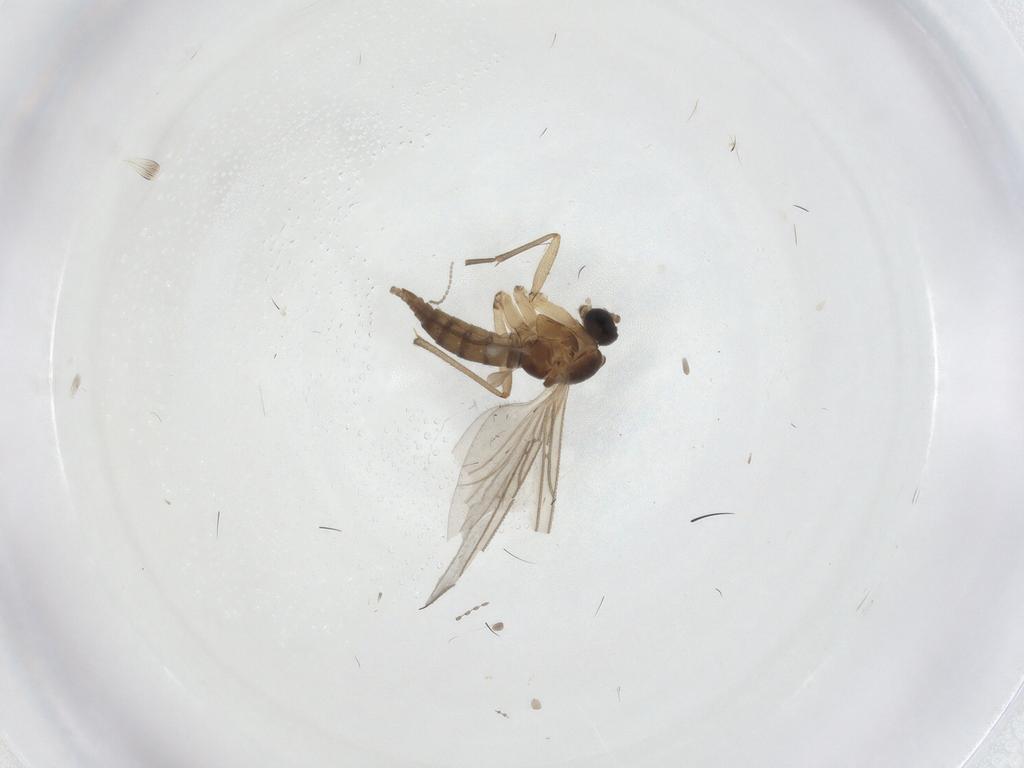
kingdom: Animalia
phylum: Arthropoda
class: Insecta
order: Diptera
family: Sciaridae
